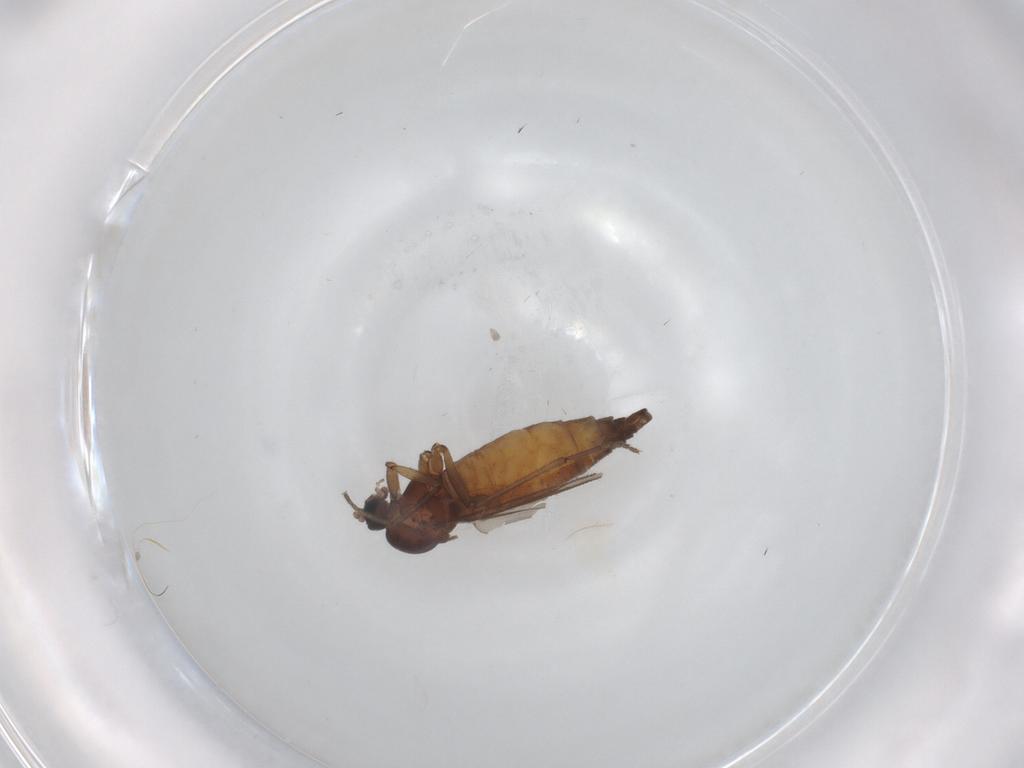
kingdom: Animalia
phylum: Arthropoda
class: Insecta
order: Diptera
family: Sciaridae
